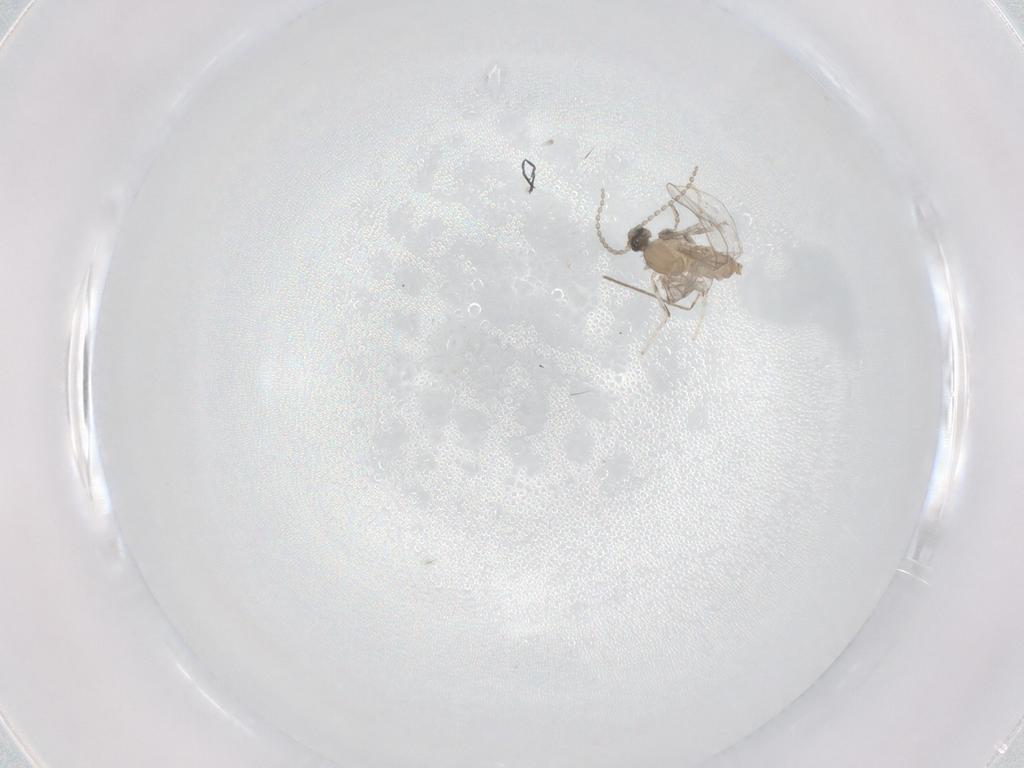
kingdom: Animalia
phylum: Arthropoda
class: Insecta
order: Diptera
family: Cecidomyiidae
